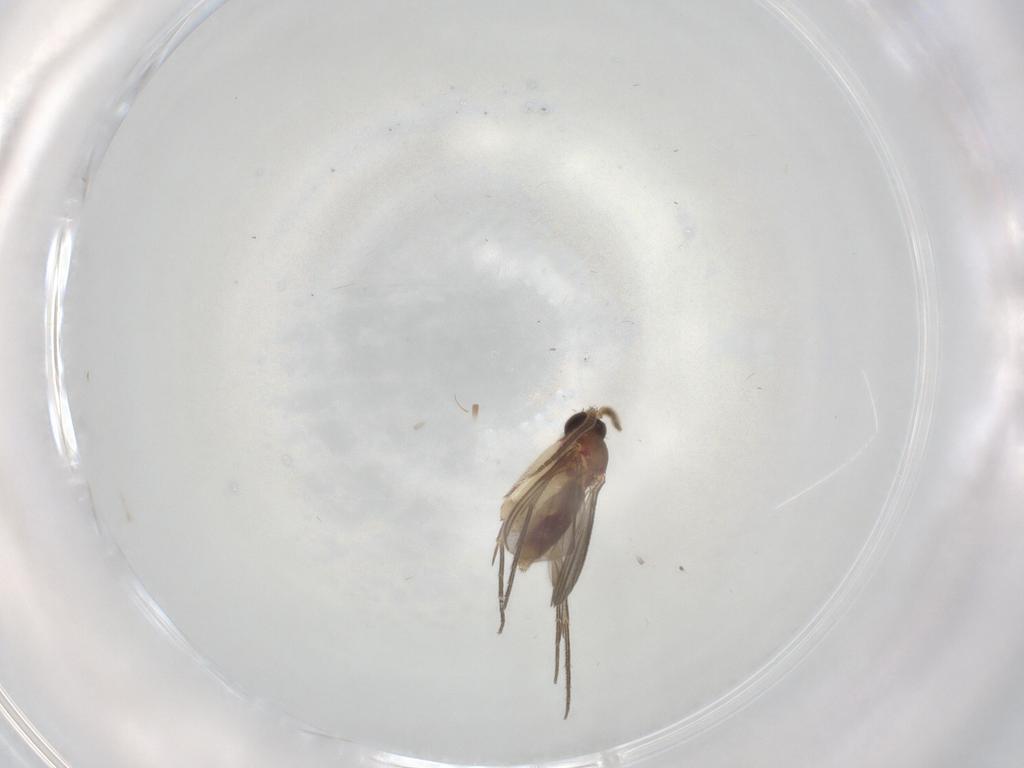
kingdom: Animalia
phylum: Arthropoda
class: Insecta
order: Diptera
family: Mycetophilidae
